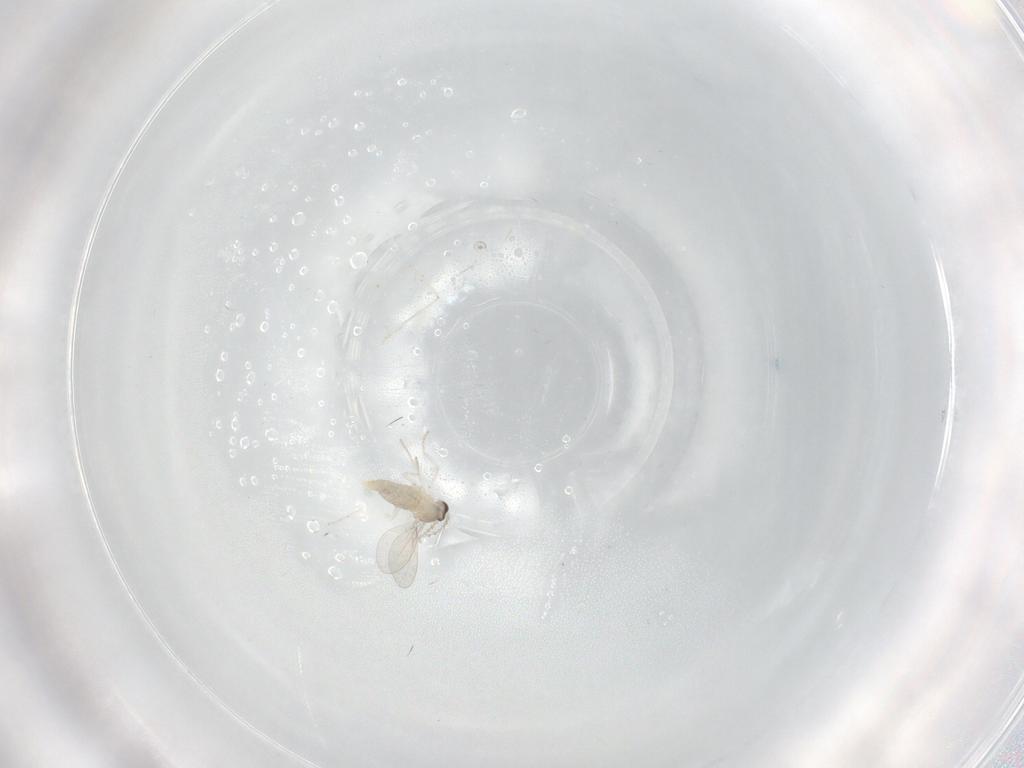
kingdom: Animalia
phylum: Arthropoda
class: Insecta
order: Diptera
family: Cecidomyiidae
